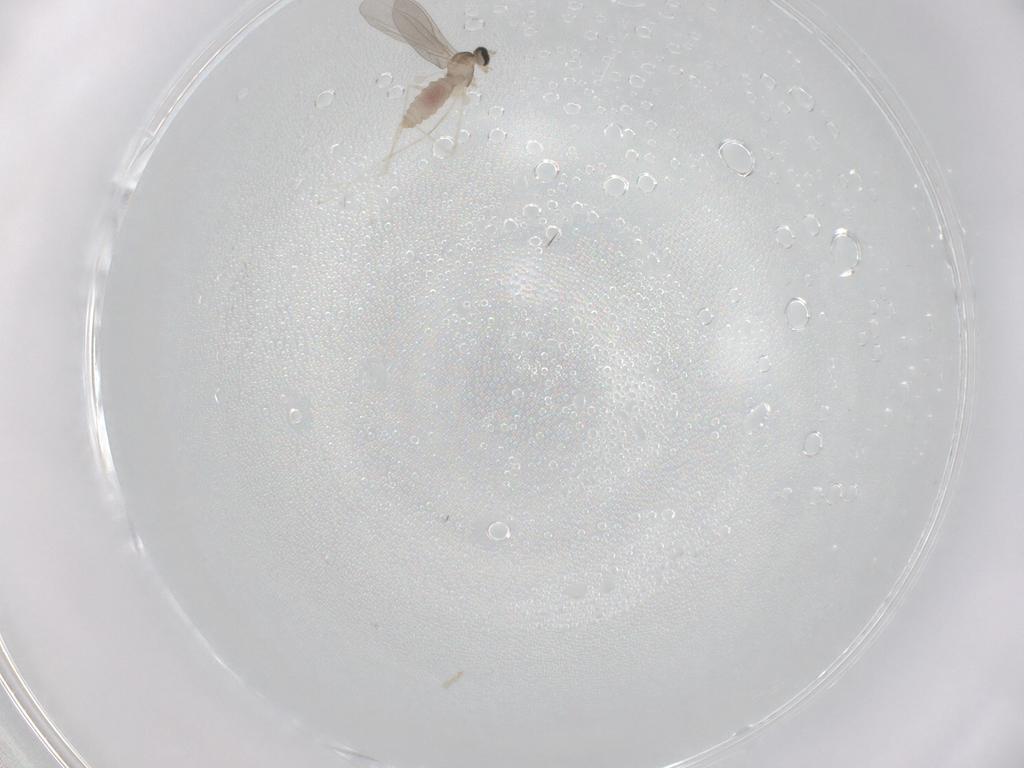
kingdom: Animalia
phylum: Arthropoda
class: Insecta
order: Diptera
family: Cecidomyiidae
